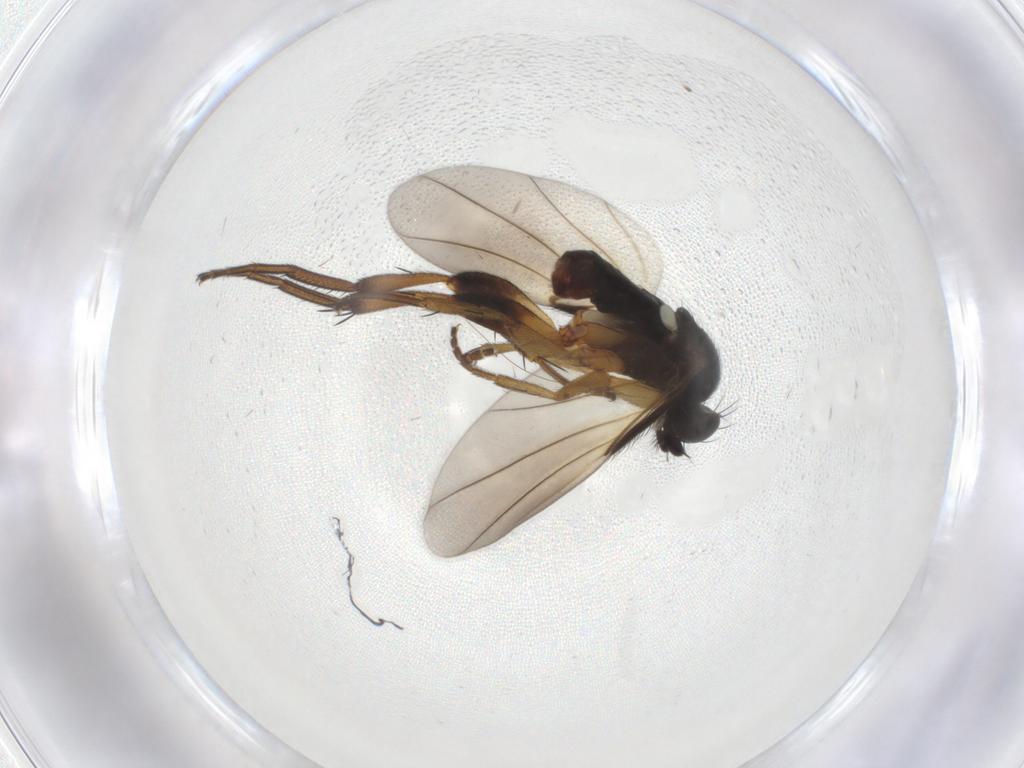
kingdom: Animalia
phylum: Arthropoda
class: Insecta
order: Diptera
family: Phoridae
